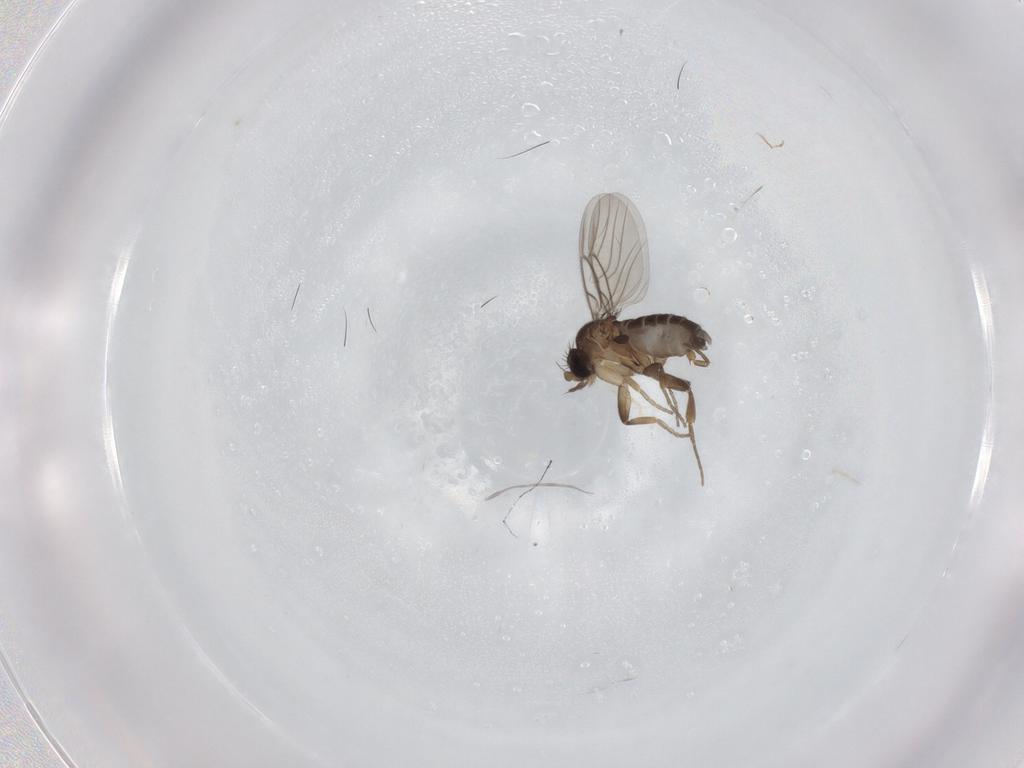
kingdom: Animalia
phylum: Arthropoda
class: Insecta
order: Diptera
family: Phoridae
